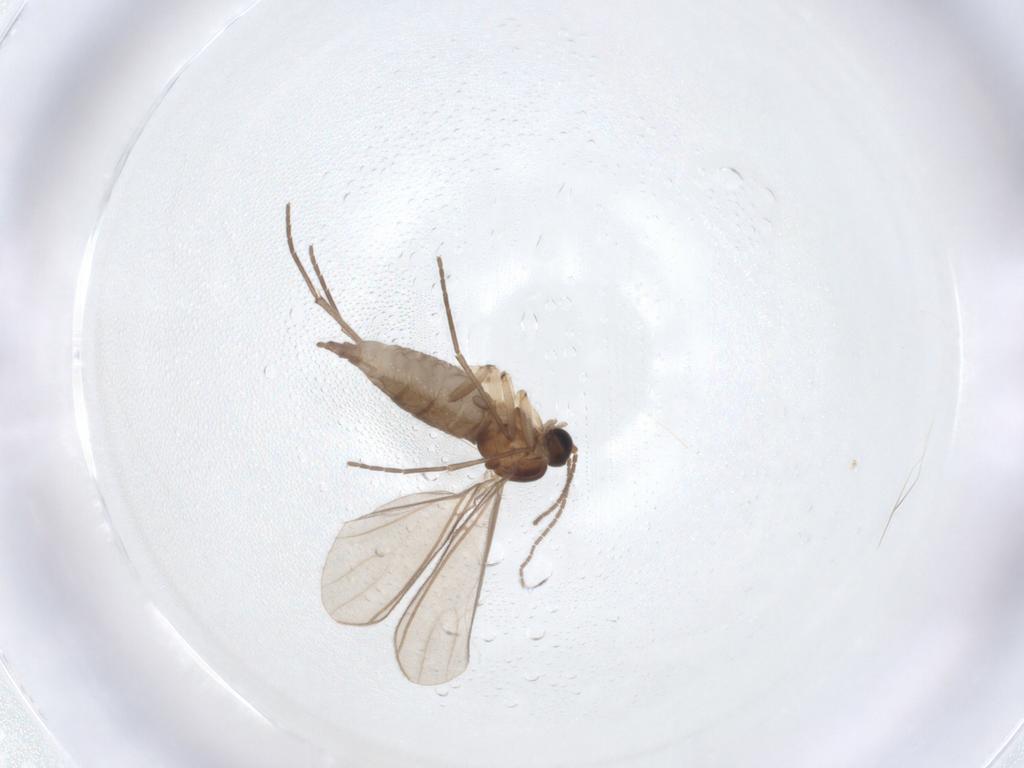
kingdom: Animalia
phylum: Arthropoda
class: Insecta
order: Diptera
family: Sciaridae
